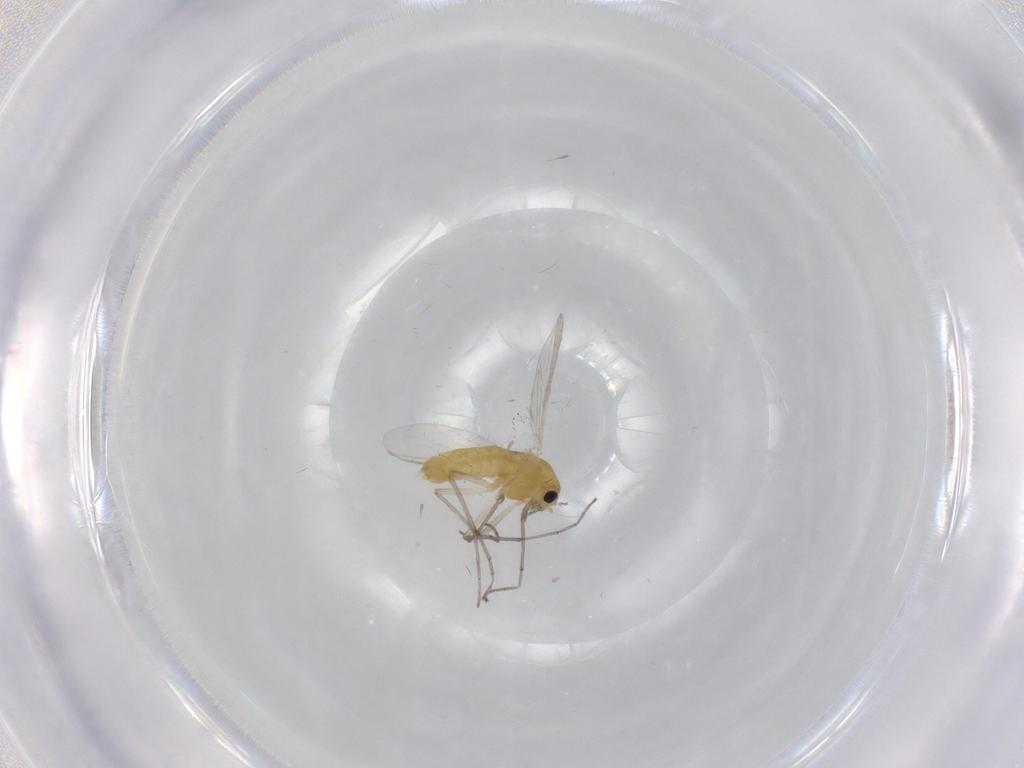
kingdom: Animalia
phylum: Arthropoda
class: Insecta
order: Diptera
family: Chironomidae
